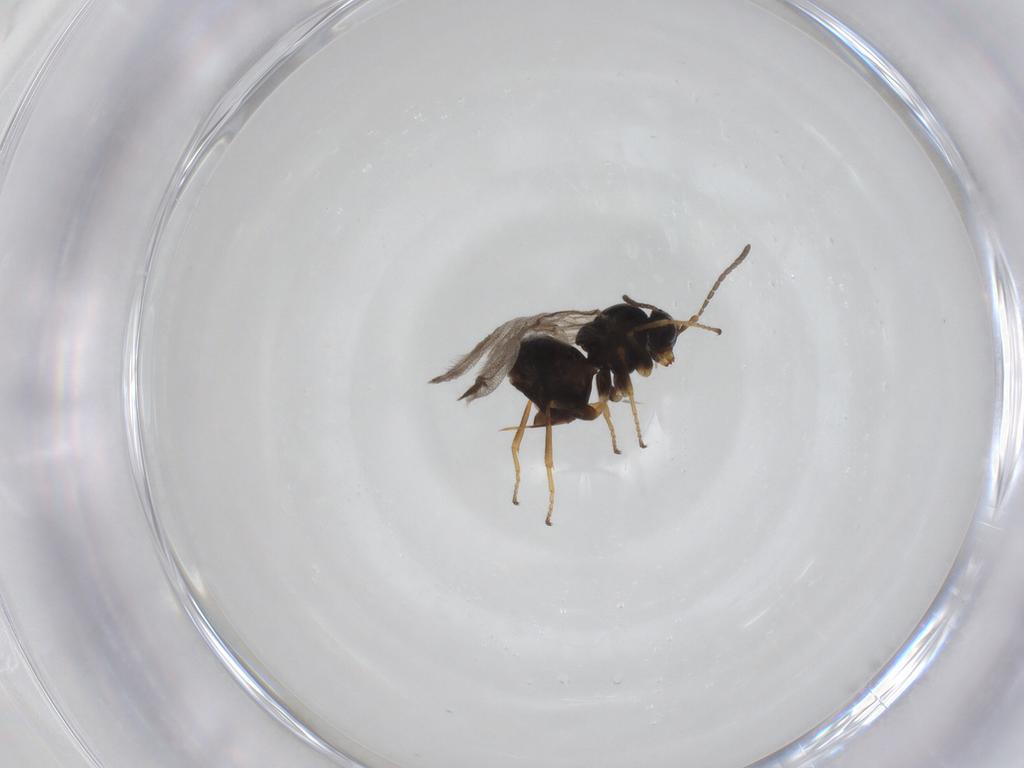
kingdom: Animalia
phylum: Arthropoda
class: Insecta
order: Hymenoptera
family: Cynipidae
